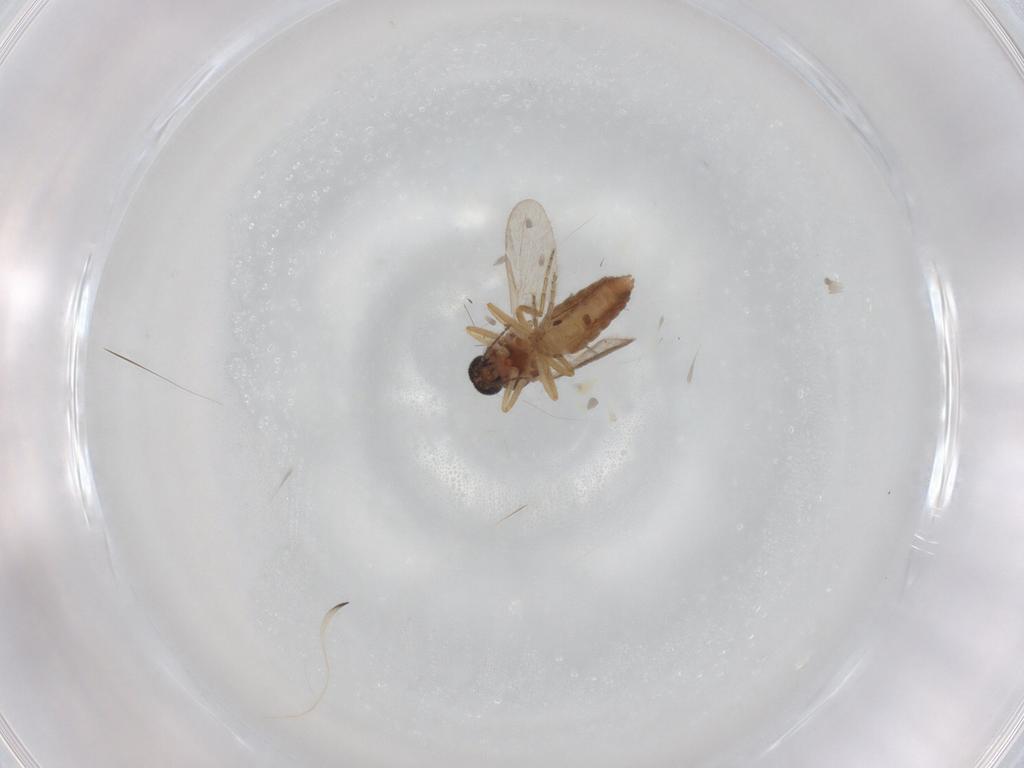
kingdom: Animalia
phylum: Arthropoda
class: Insecta
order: Diptera
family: Ceratopogonidae
